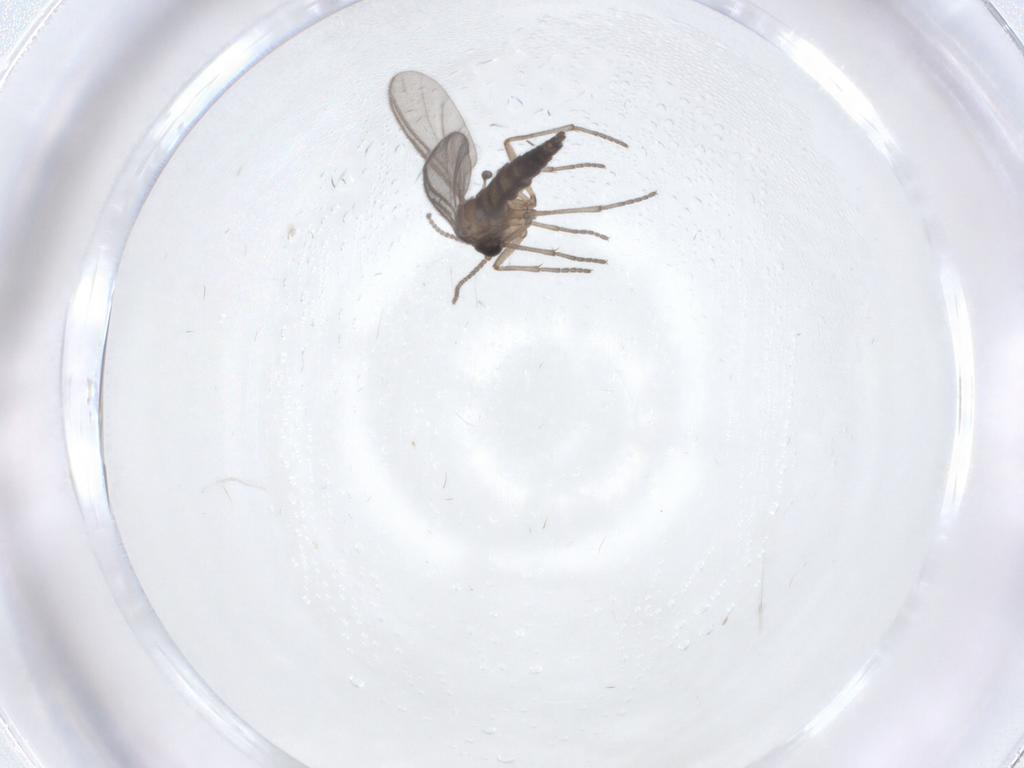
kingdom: Animalia
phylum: Arthropoda
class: Insecta
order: Diptera
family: Sciaridae
